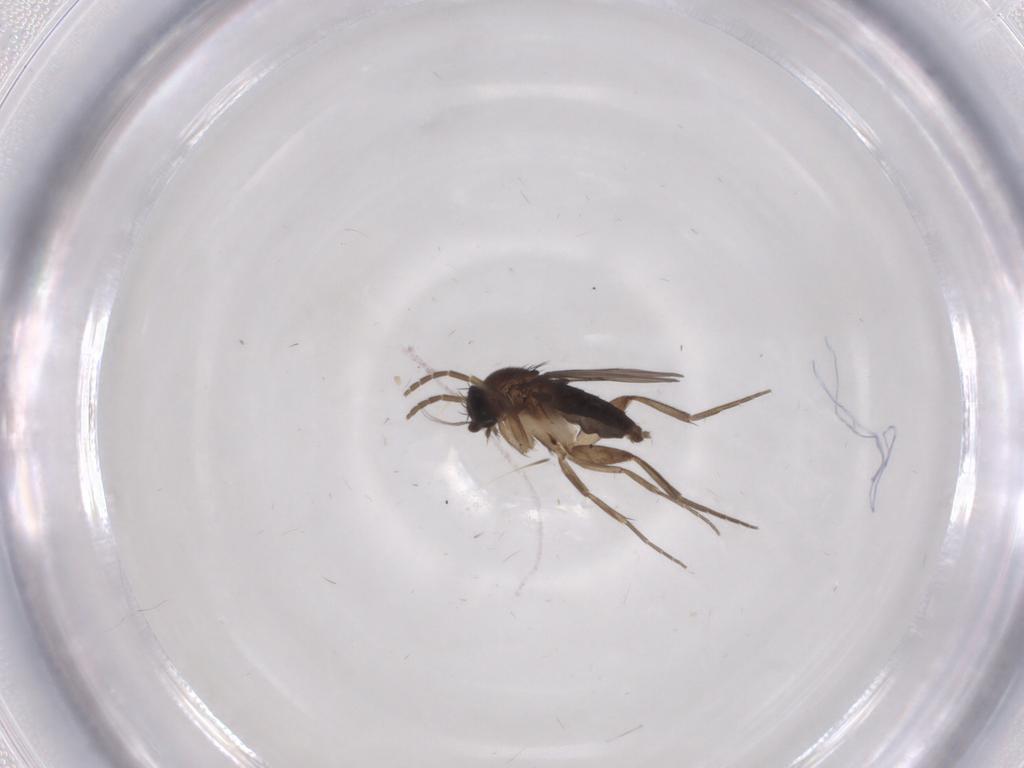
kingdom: Animalia
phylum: Arthropoda
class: Insecta
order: Diptera
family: Phoridae
